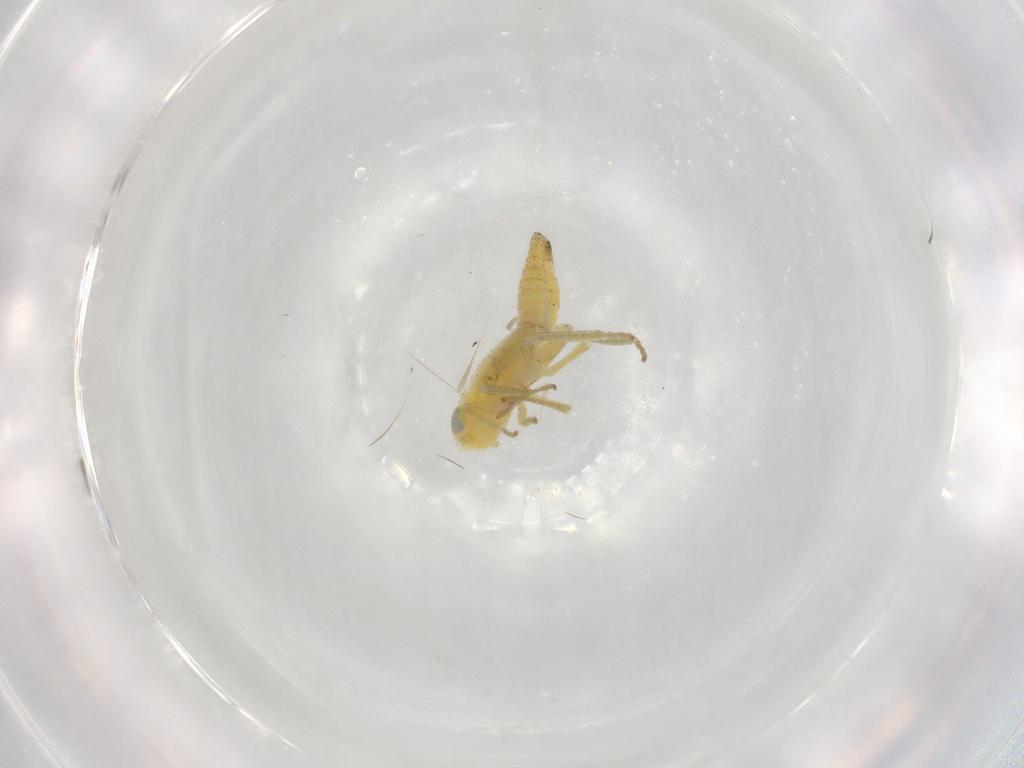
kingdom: Animalia
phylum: Arthropoda
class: Insecta
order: Hemiptera
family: Cicadellidae
